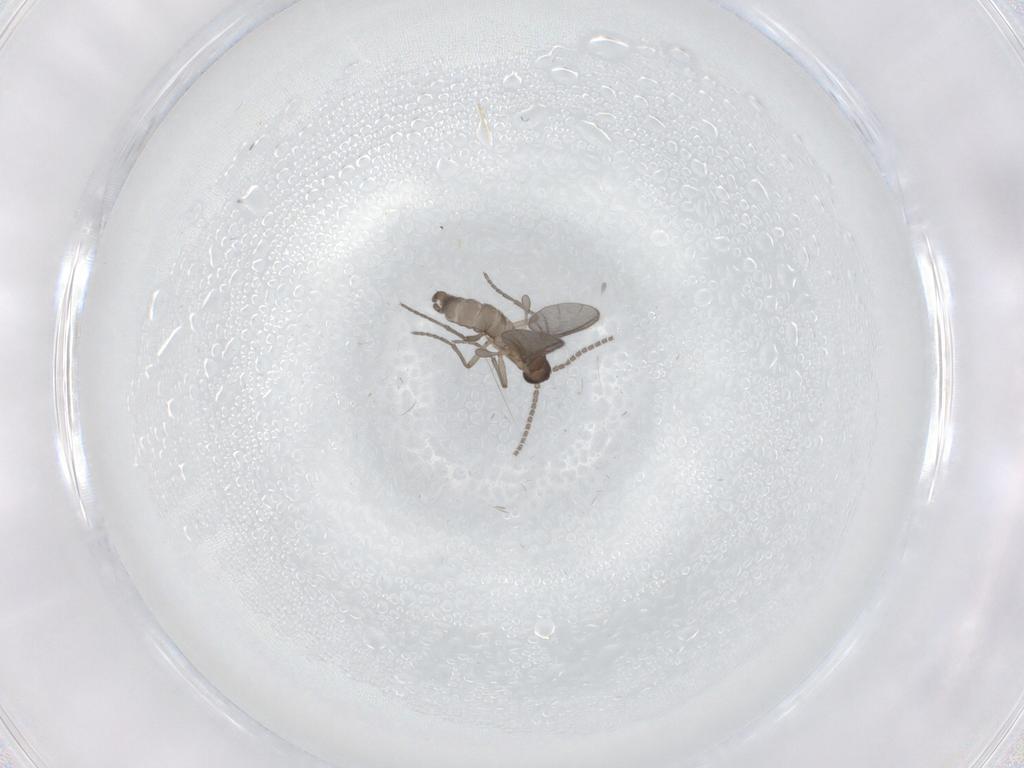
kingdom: Animalia
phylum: Arthropoda
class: Insecta
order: Diptera
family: Sciaridae
